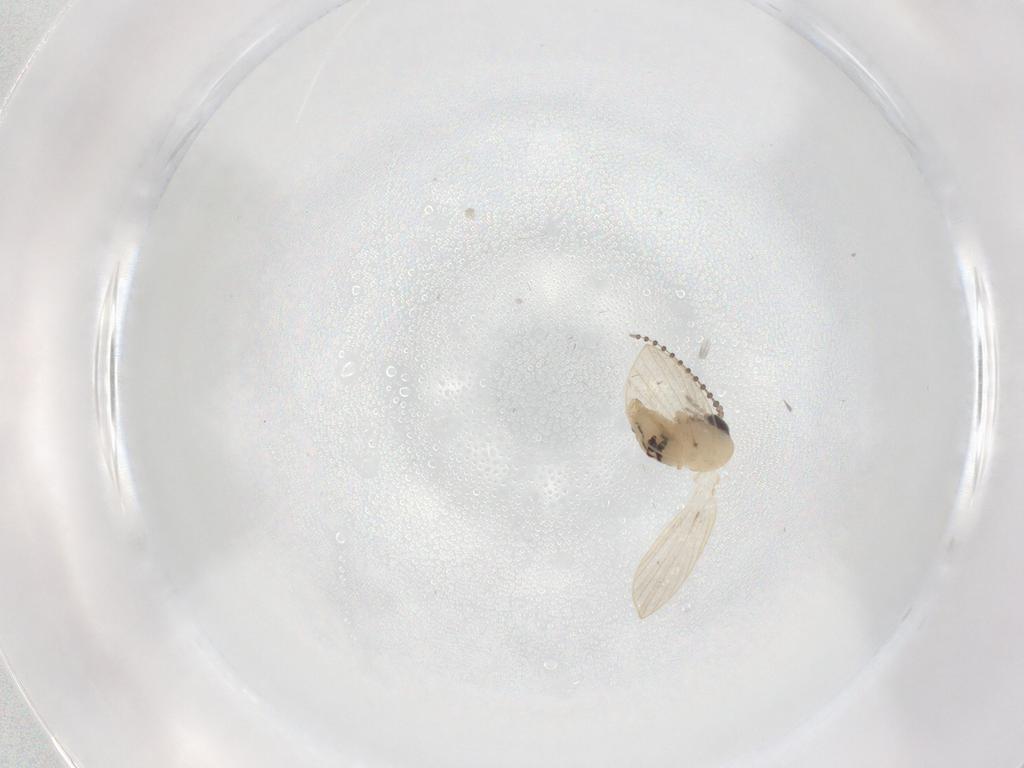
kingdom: Animalia
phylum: Arthropoda
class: Insecta
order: Diptera
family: Psychodidae
